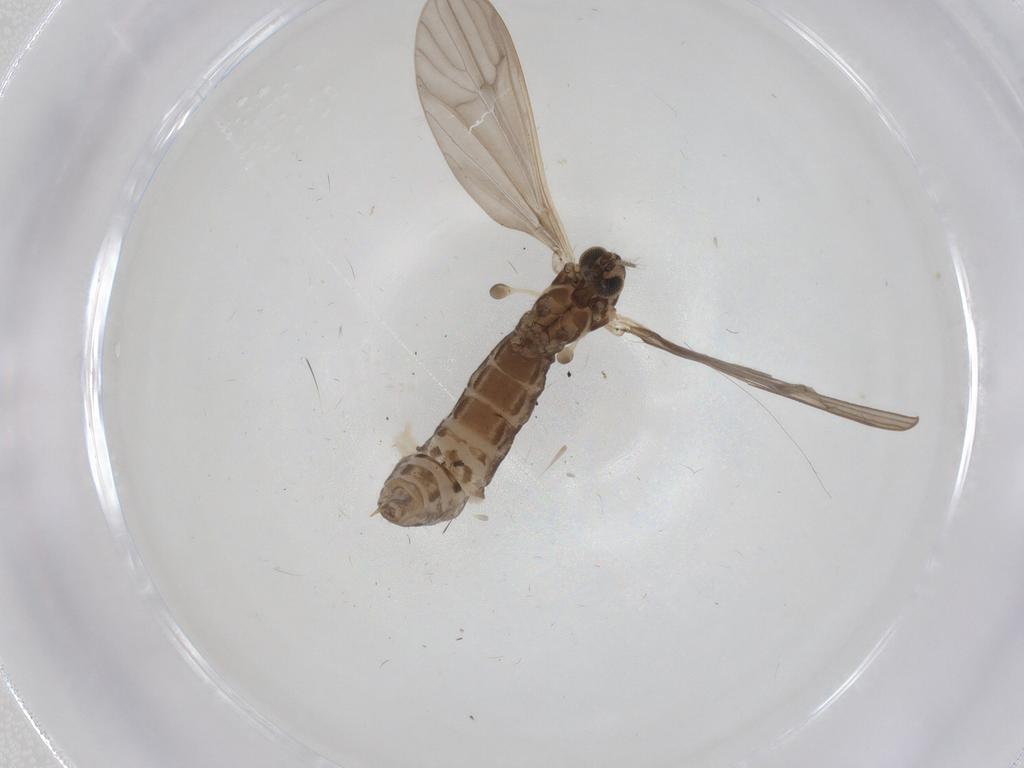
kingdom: Animalia
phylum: Arthropoda
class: Insecta
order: Diptera
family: Limoniidae
